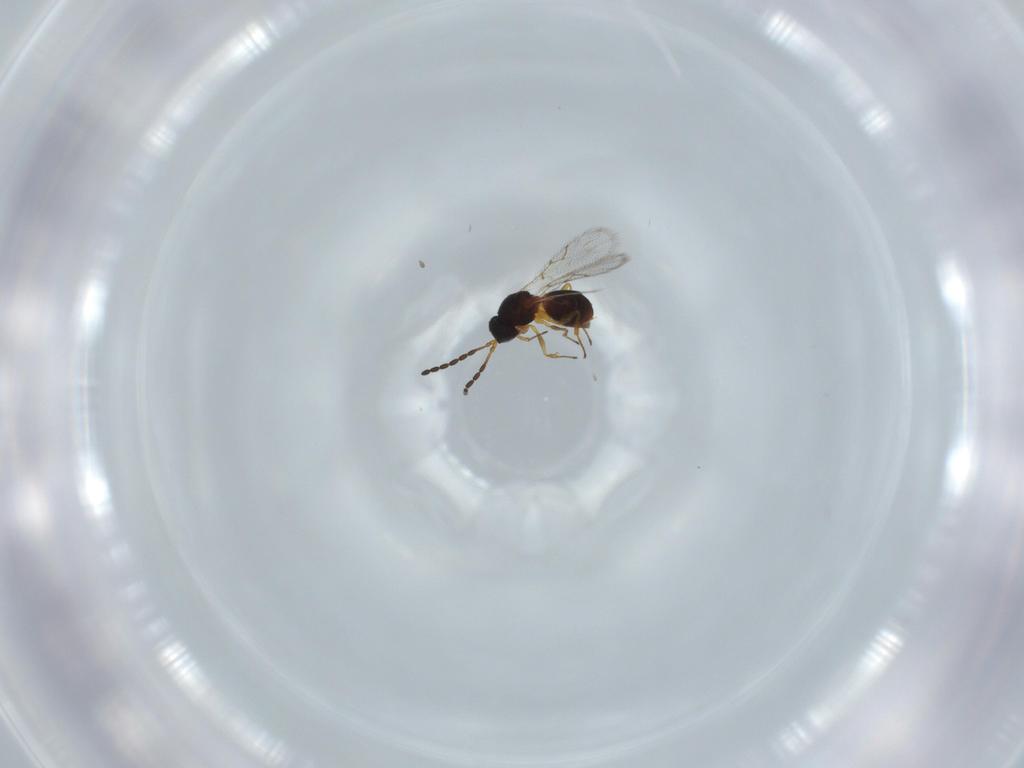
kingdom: Animalia
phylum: Arthropoda
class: Insecta
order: Hymenoptera
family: Figitidae
